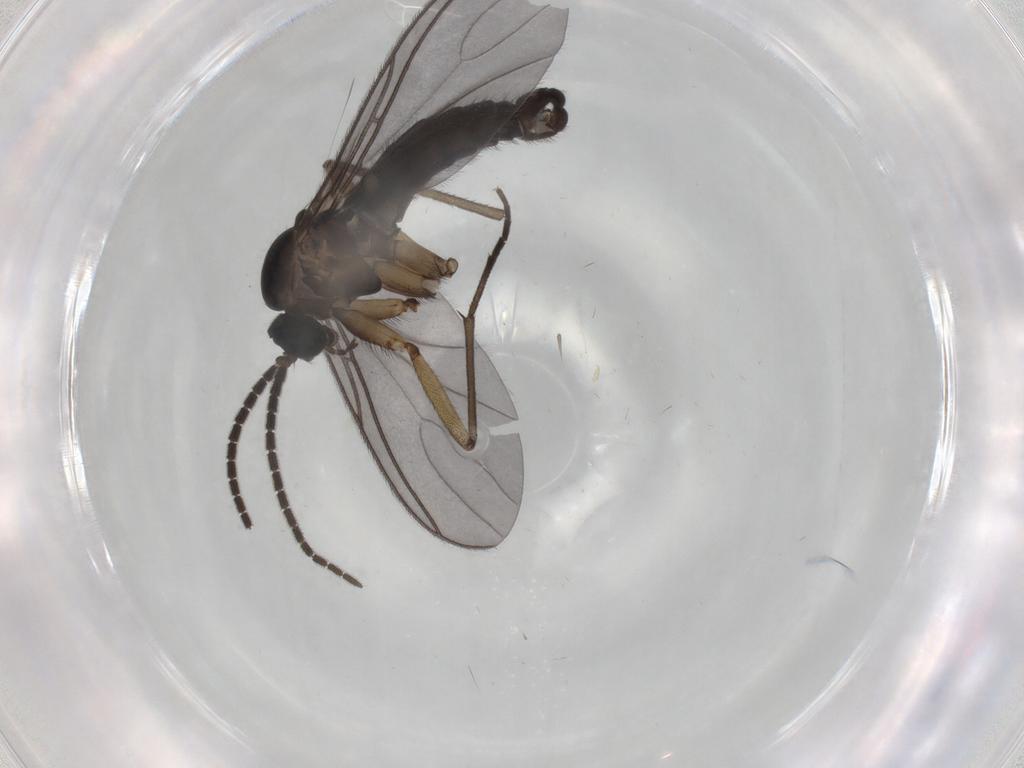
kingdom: Animalia
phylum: Arthropoda
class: Insecta
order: Diptera
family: Sciaridae
